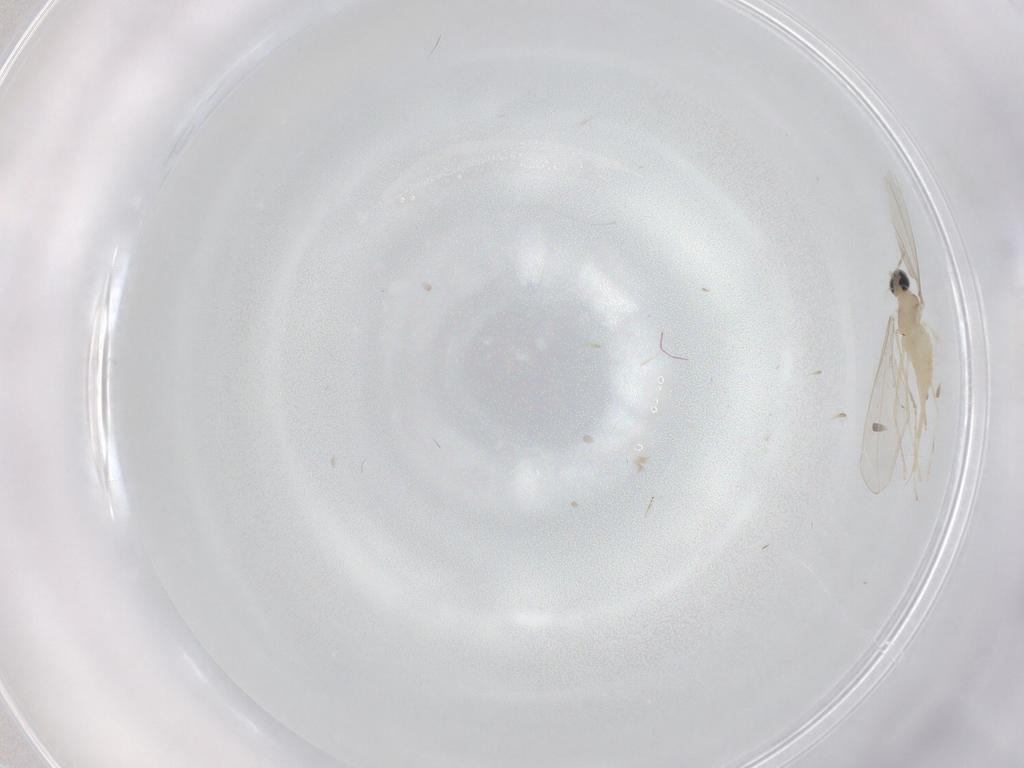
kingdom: Animalia
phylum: Arthropoda
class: Insecta
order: Diptera
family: Cecidomyiidae
